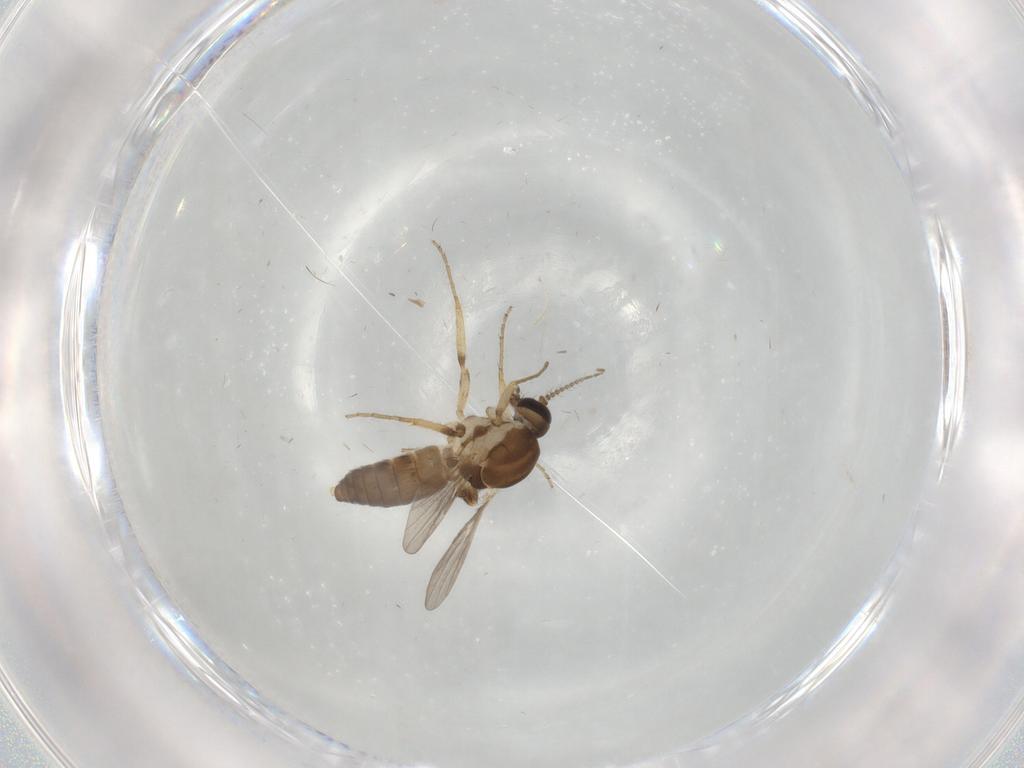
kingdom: Animalia
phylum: Arthropoda
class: Insecta
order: Diptera
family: Ceratopogonidae
